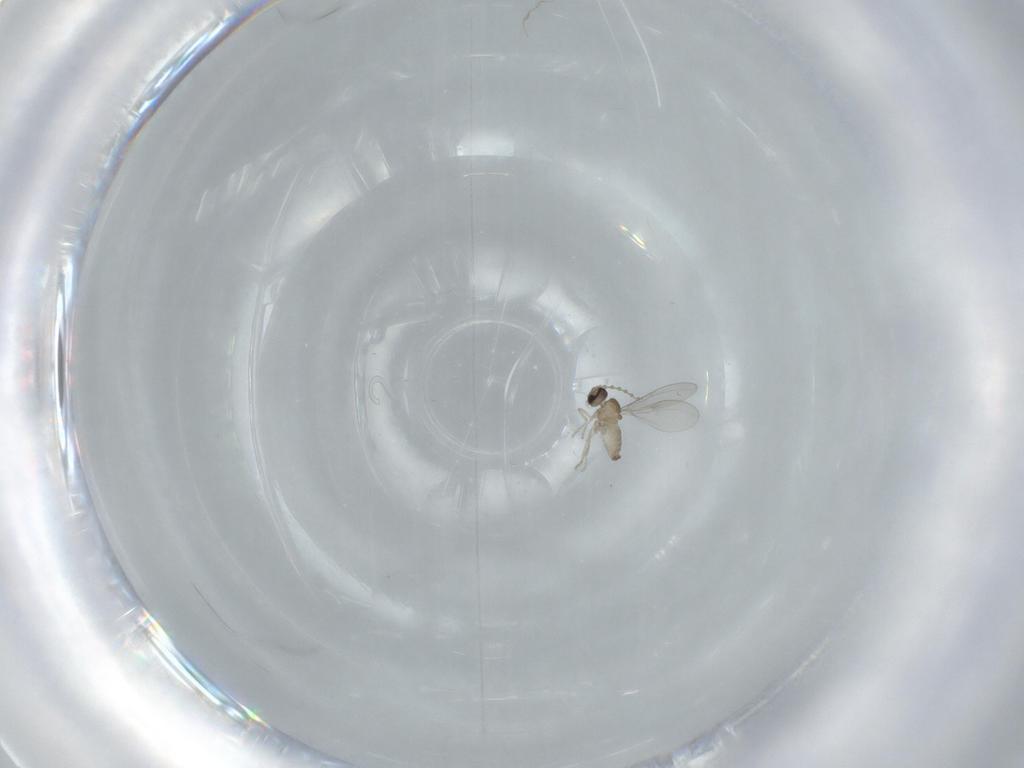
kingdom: Animalia
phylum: Arthropoda
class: Insecta
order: Diptera
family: Cecidomyiidae
